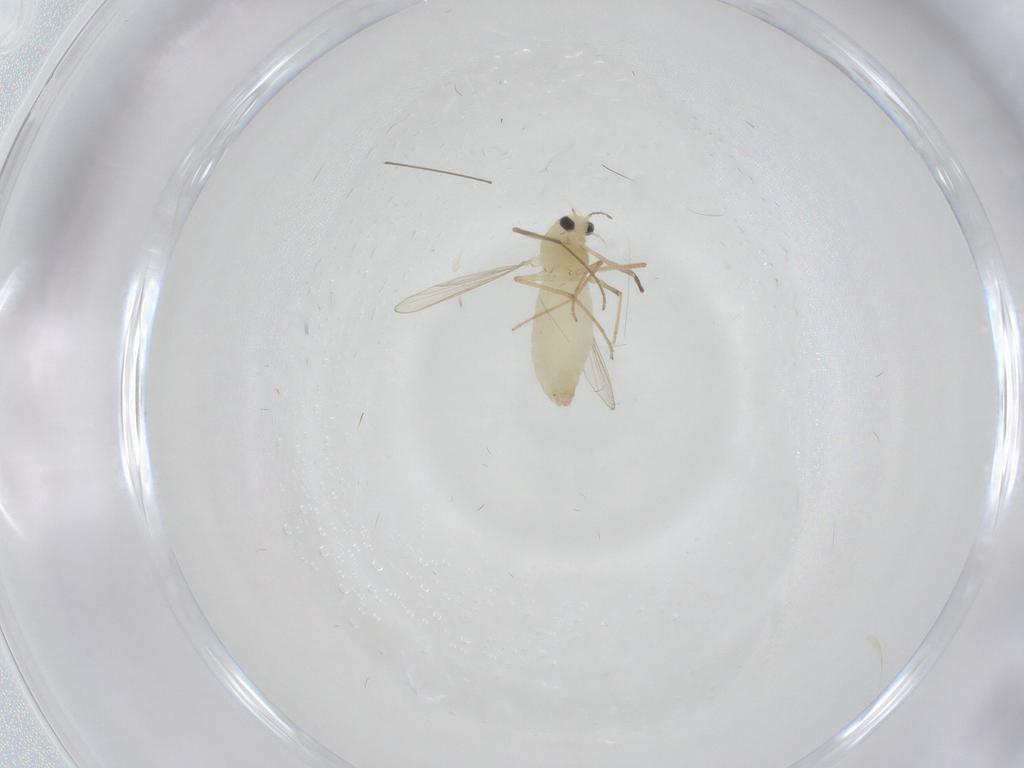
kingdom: Animalia
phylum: Arthropoda
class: Insecta
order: Diptera
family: Chironomidae
